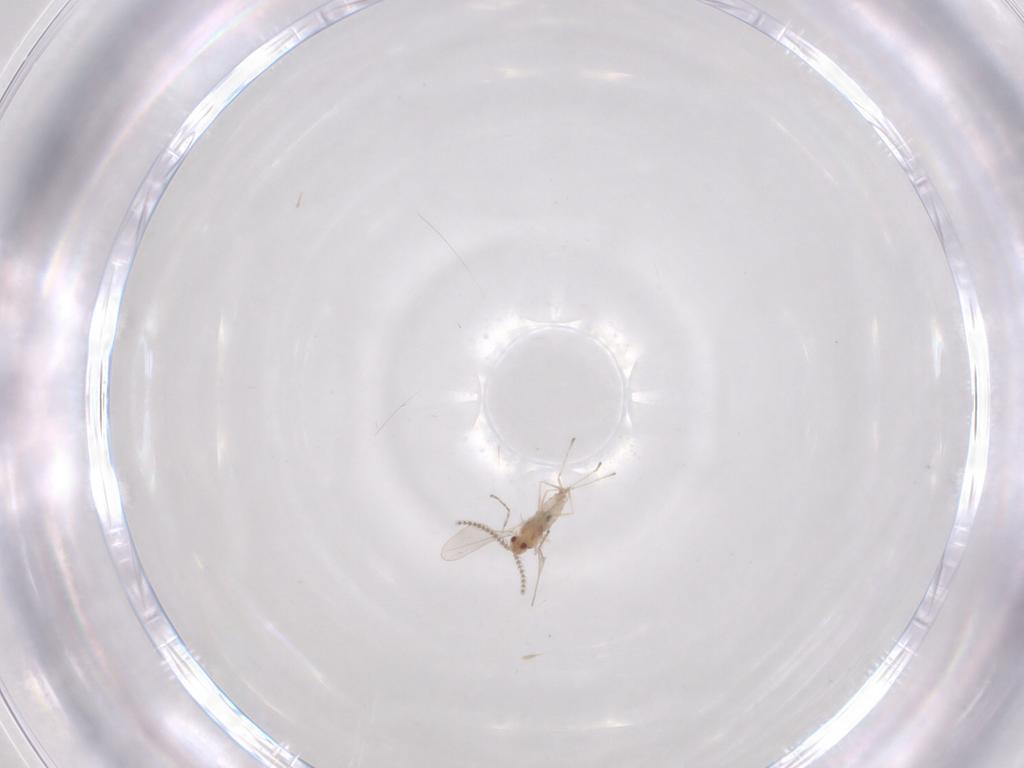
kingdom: Animalia
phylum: Arthropoda
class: Insecta
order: Diptera
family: Cecidomyiidae
